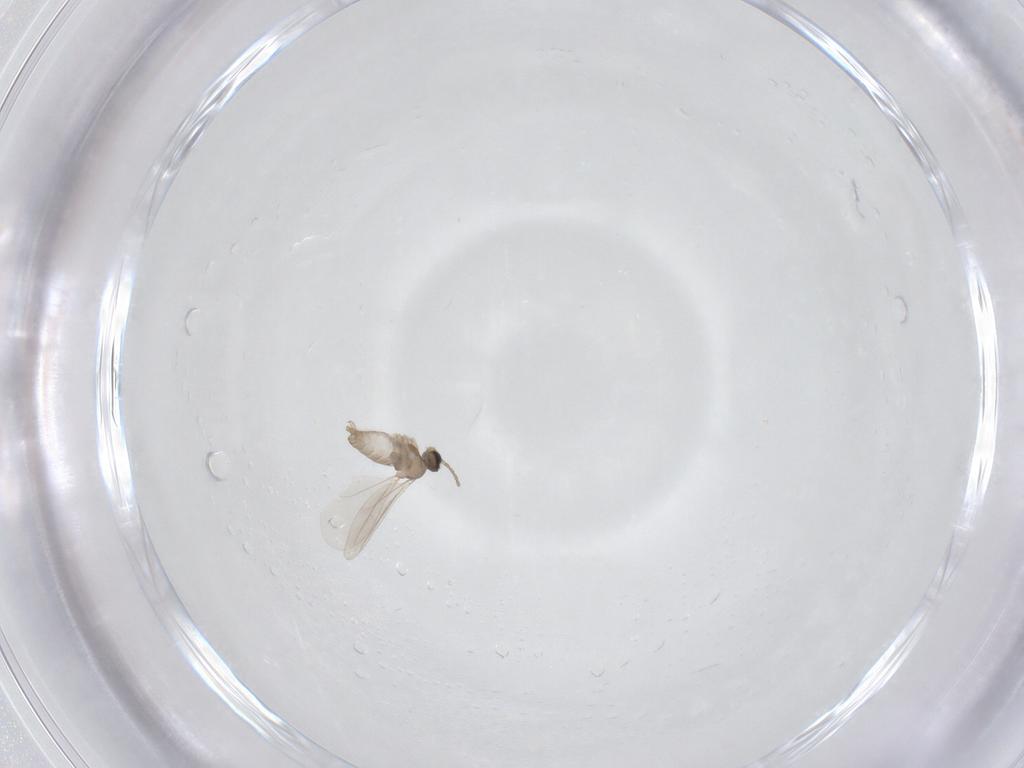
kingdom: Animalia
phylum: Arthropoda
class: Insecta
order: Diptera
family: Cecidomyiidae
